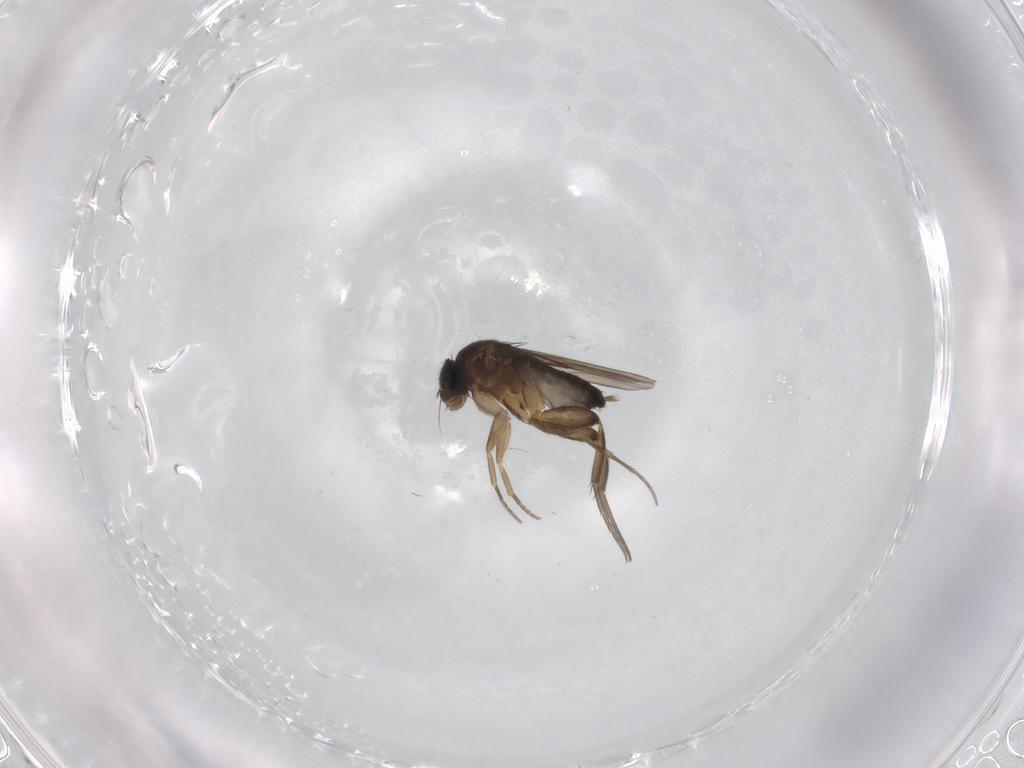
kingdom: Animalia
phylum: Arthropoda
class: Insecta
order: Diptera
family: Phoridae
